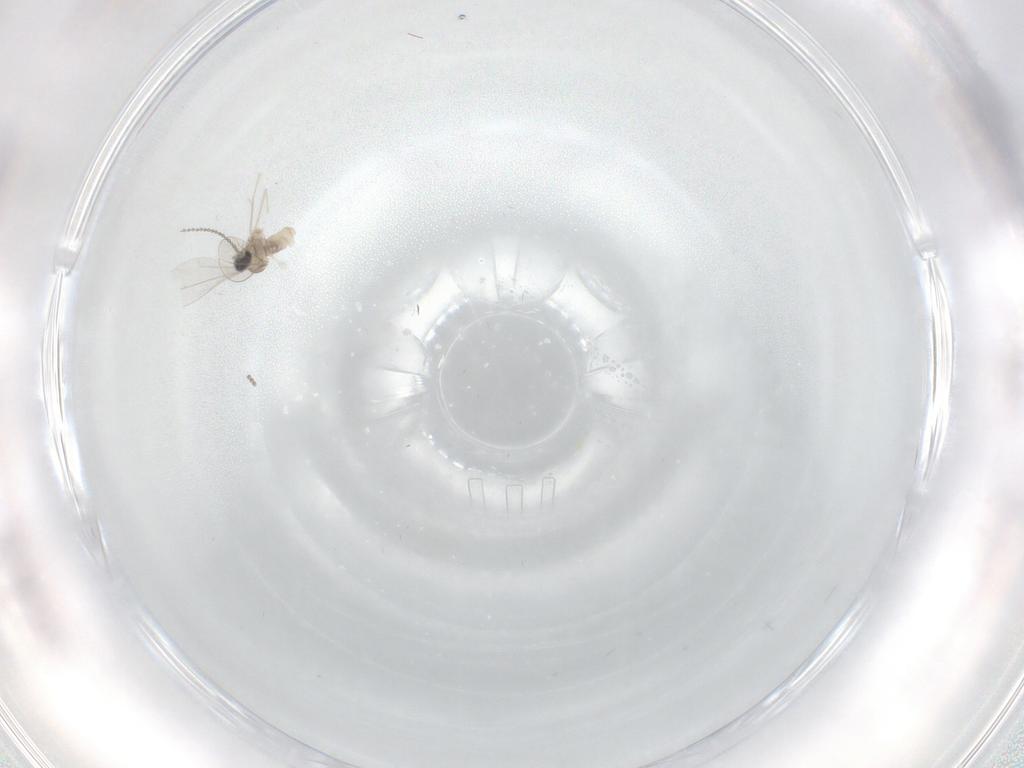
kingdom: Animalia
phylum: Arthropoda
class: Insecta
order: Diptera
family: Cecidomyiidae
